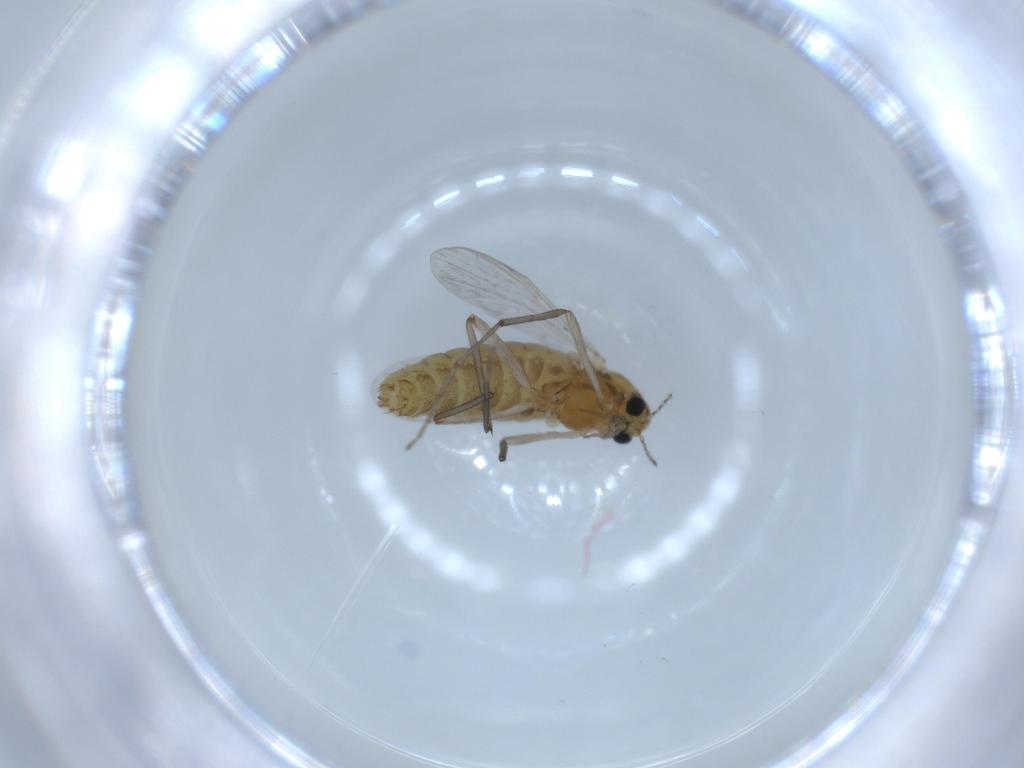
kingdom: Animalia
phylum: Arthropoda
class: Insecta
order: Diptera
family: Chironomidae
